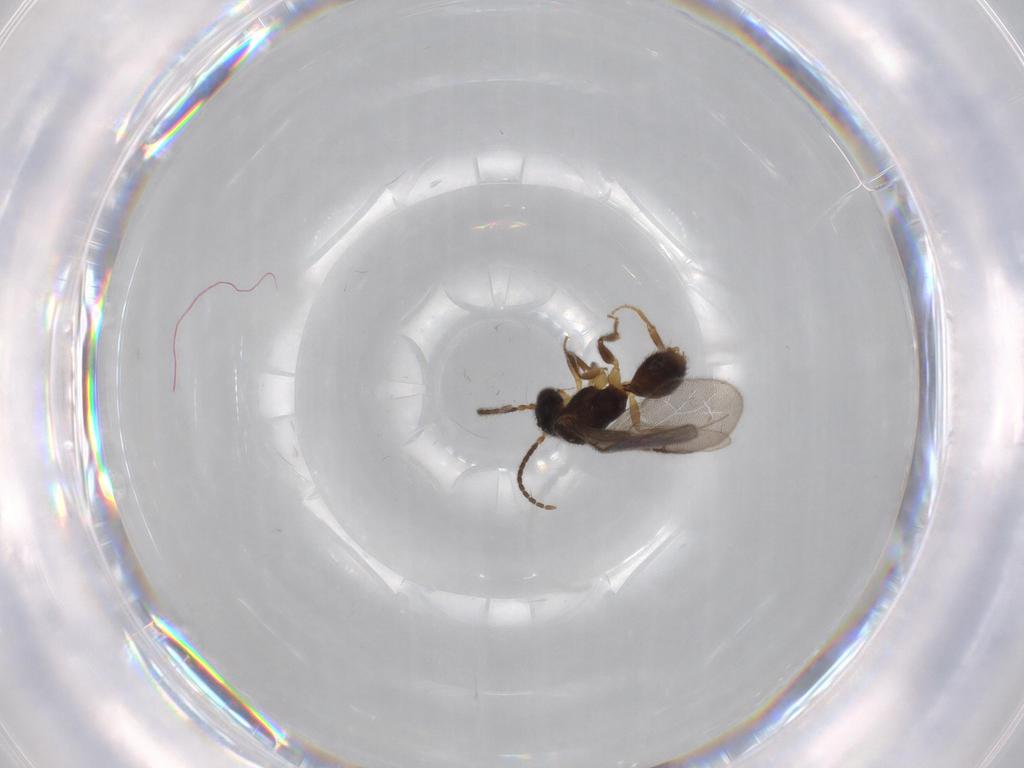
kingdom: Animalia
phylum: Arthropoda
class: Insecta
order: Hymenoptera
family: Bethylidae
